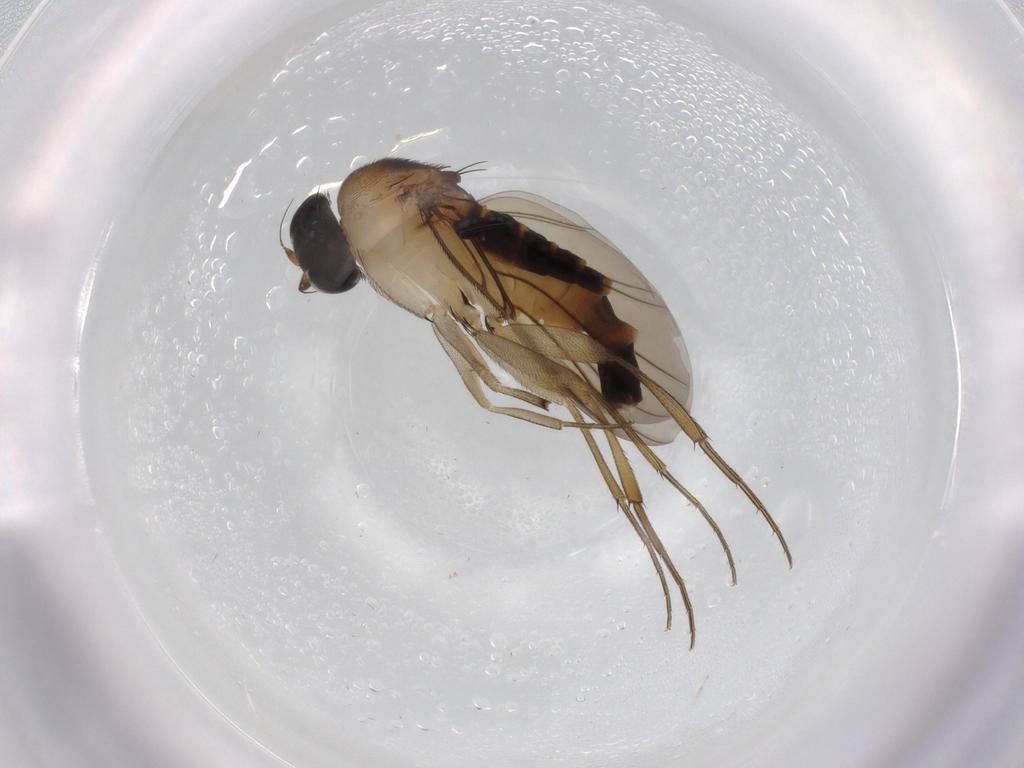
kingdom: Animalia
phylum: Arthropoda
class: Insecta
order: Diptera
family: Phoridae
